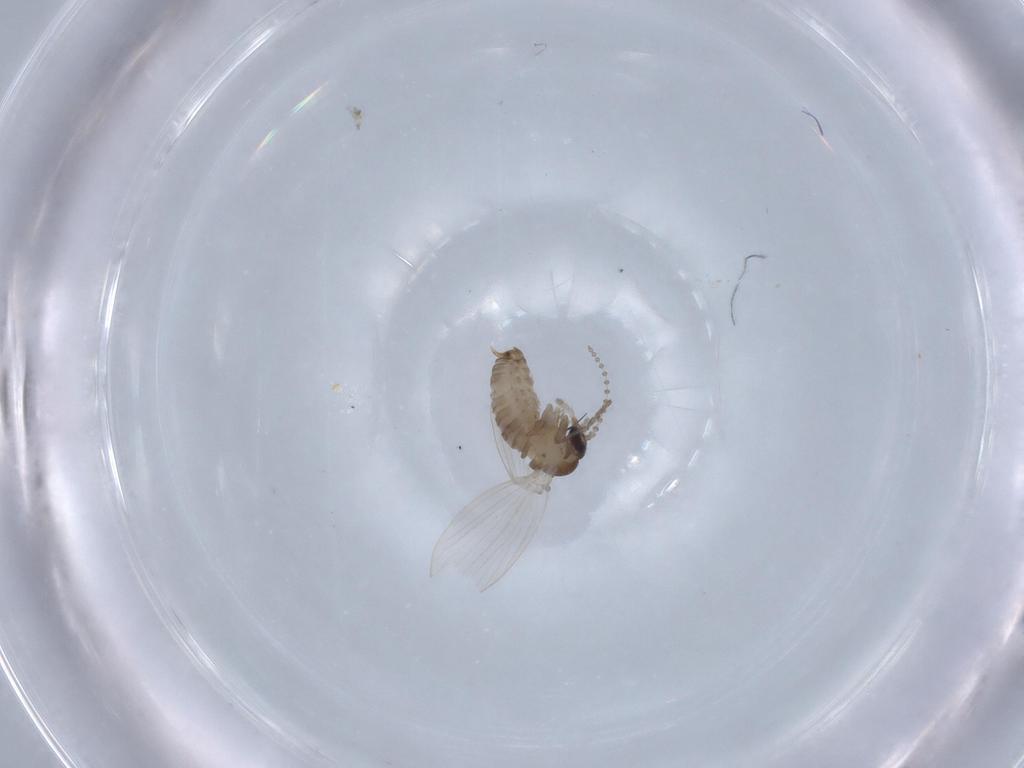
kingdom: Animalia
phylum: Arthropoda
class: Insecta
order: Diptera
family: Psychodidae
